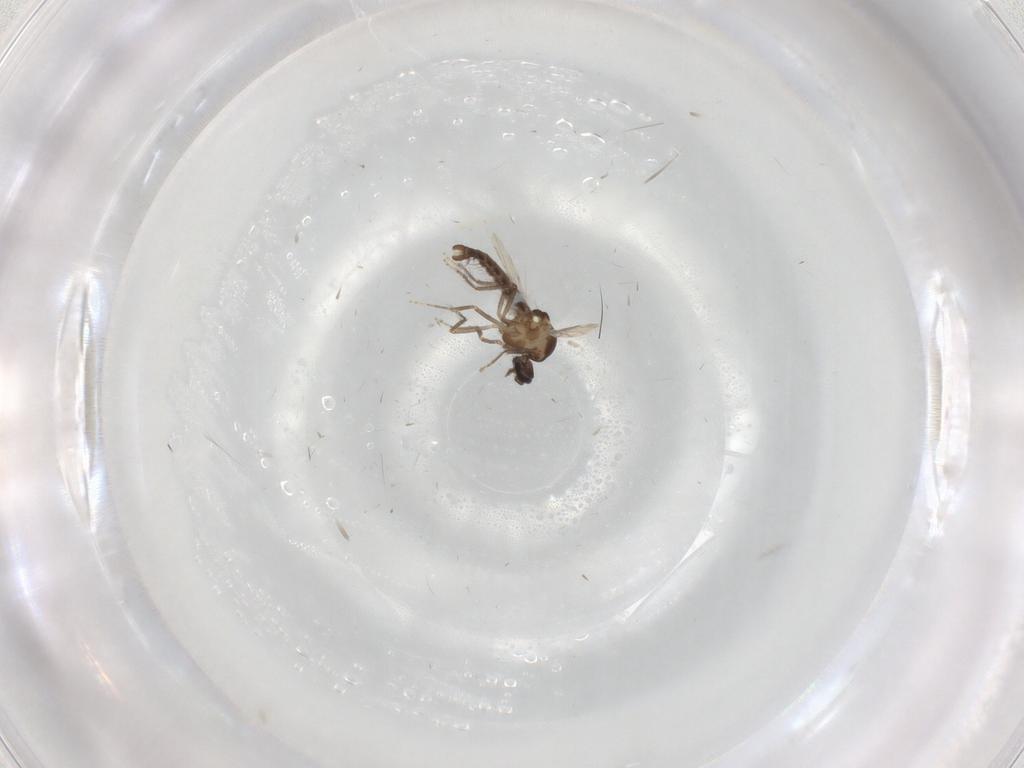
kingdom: Animalia
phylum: Arthropoda
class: Insecta
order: Diptera
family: Ceratopogonidae
